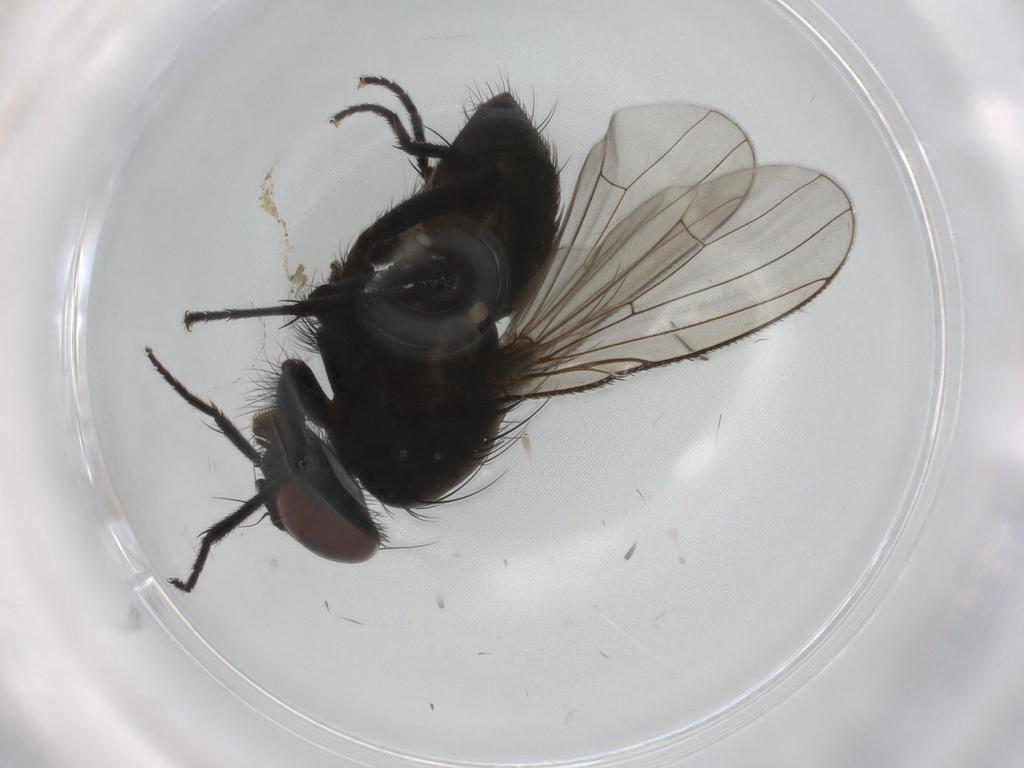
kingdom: Animalia
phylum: Arthropoda
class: Insecta
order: Diptera
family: Muscidae
